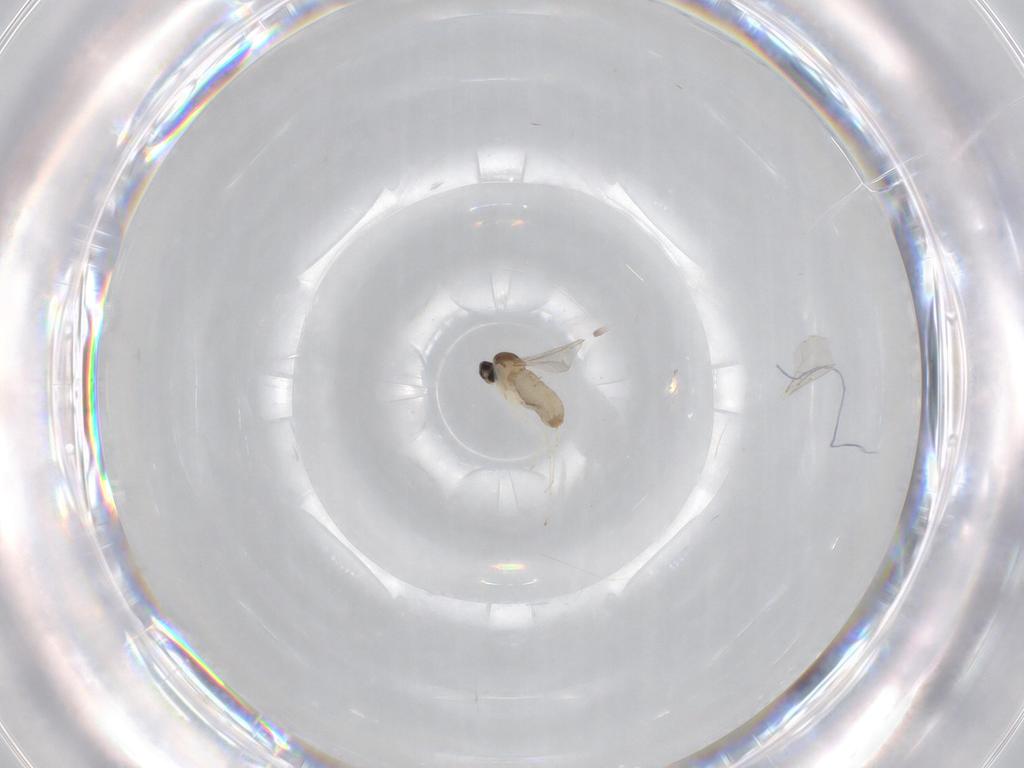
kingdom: Animalia
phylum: Arthropoda
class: Insecta
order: Diptera
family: Cecidomyiidae
